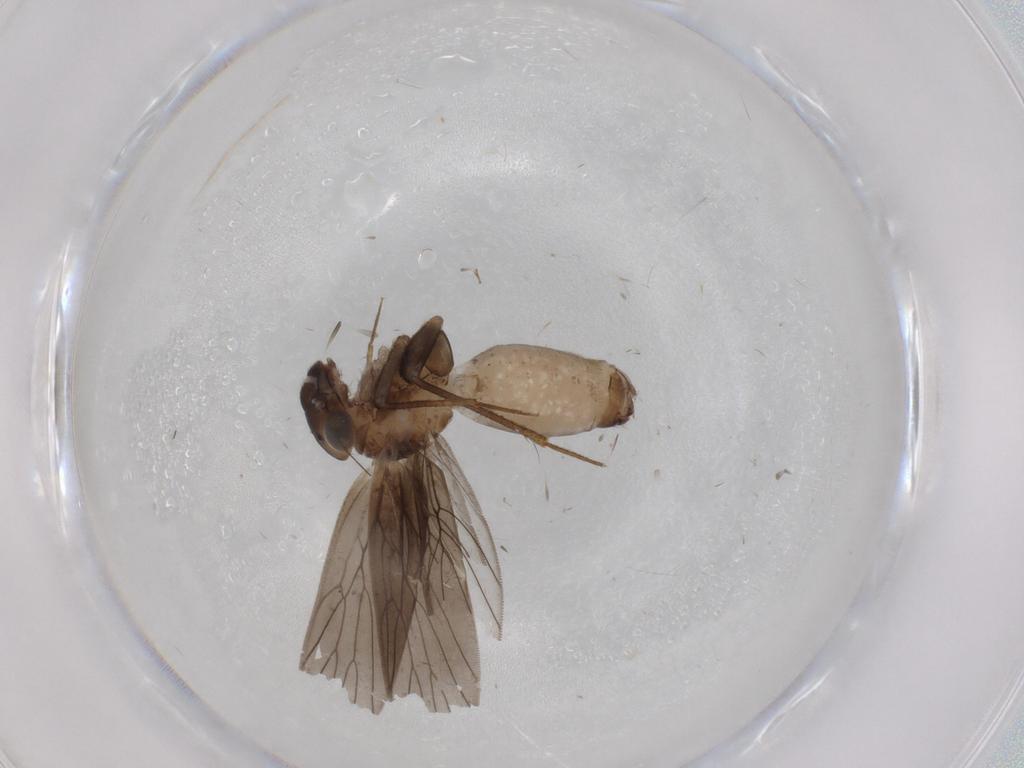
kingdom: Animalia
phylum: Arthropoda
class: Insecta
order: Psocodea
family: Lepidopsocidae
